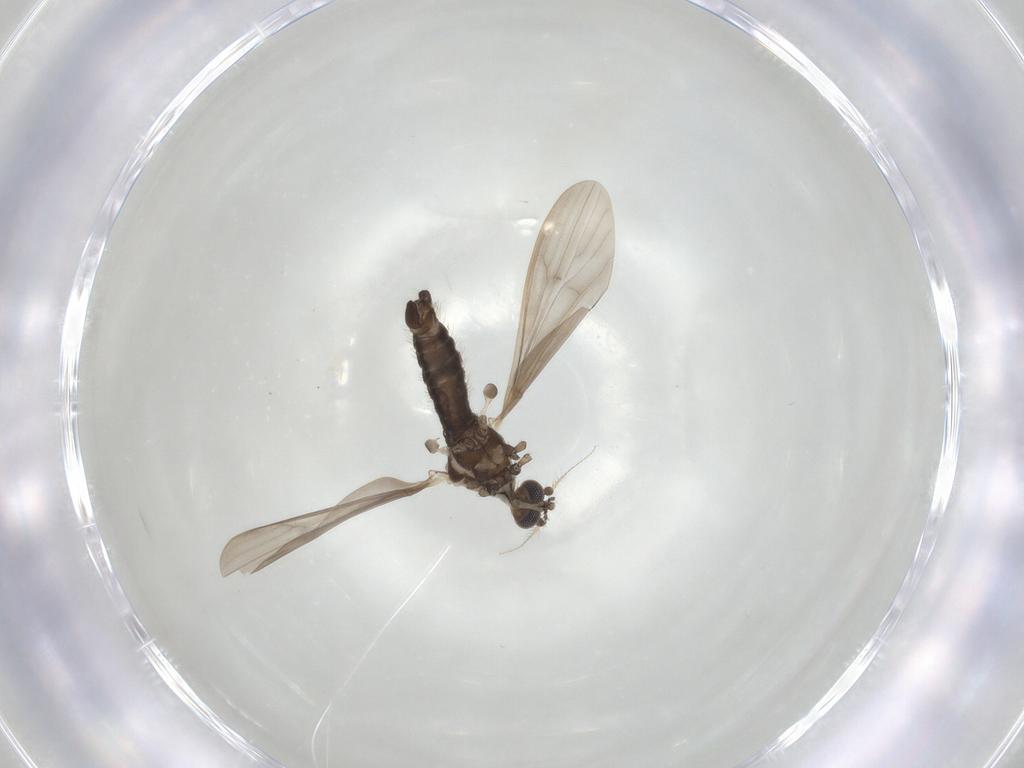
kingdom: Animalia
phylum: Arthropoda
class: Insecta
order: Diptera
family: Limoniidae
